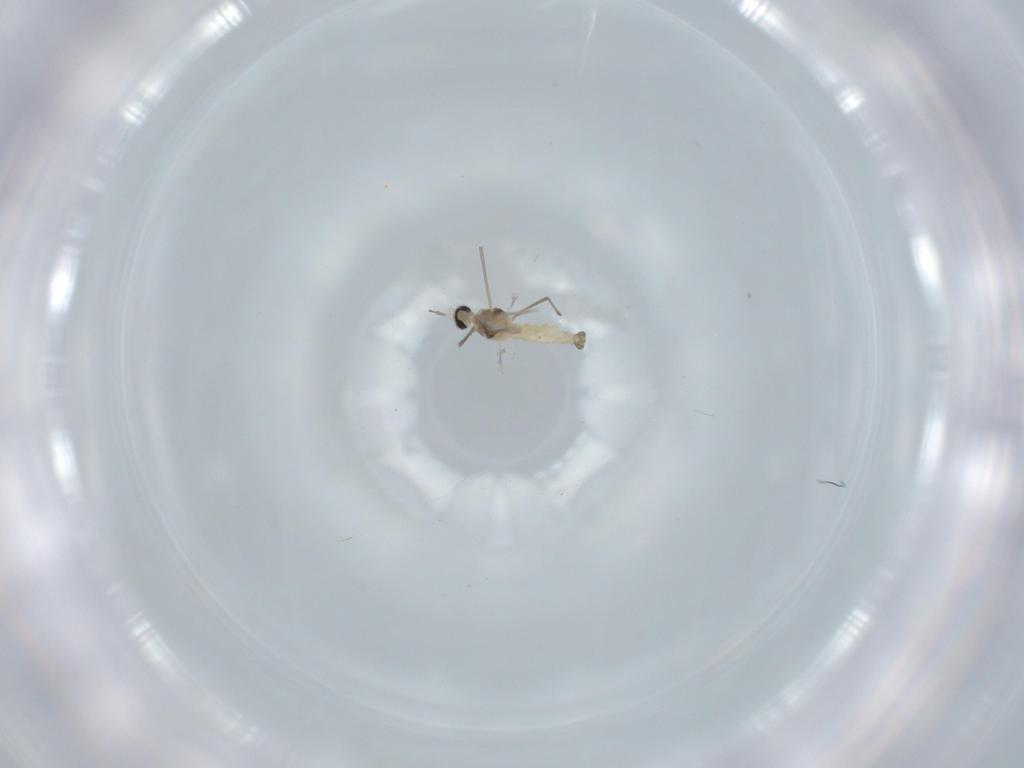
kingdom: Animalia
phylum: Arthropoda
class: Insecta
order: Diptera
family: Cecidomyiidae
